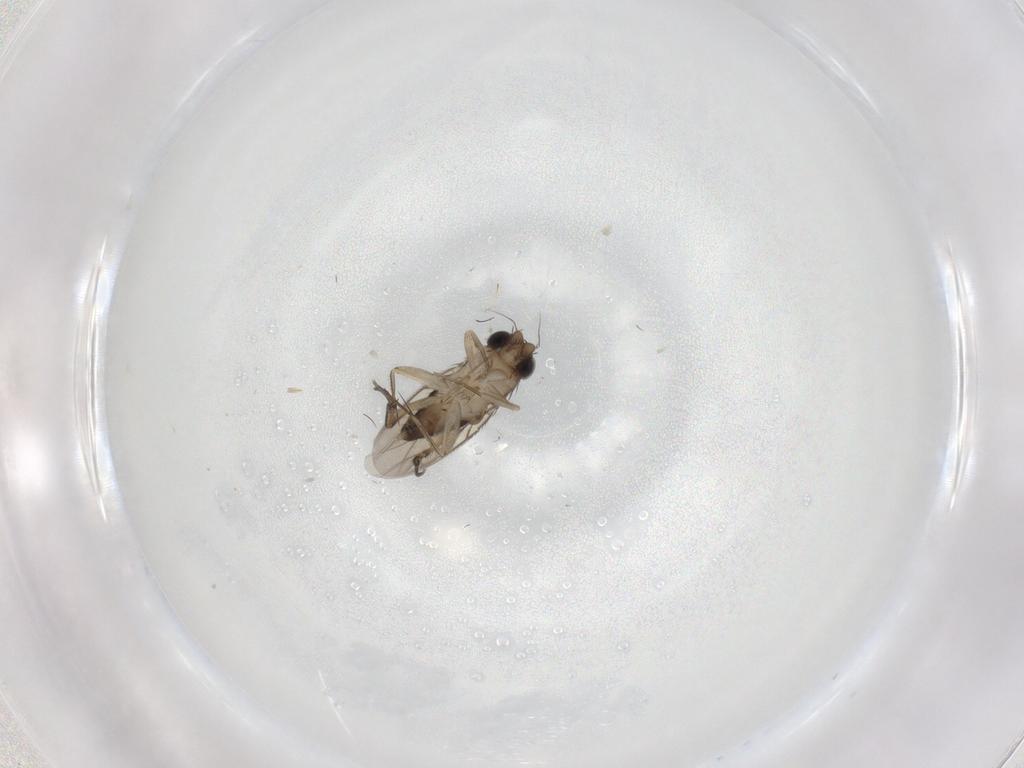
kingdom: Animalia
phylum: Arthropoda
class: Insecta
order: Diptera
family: Phoridae
